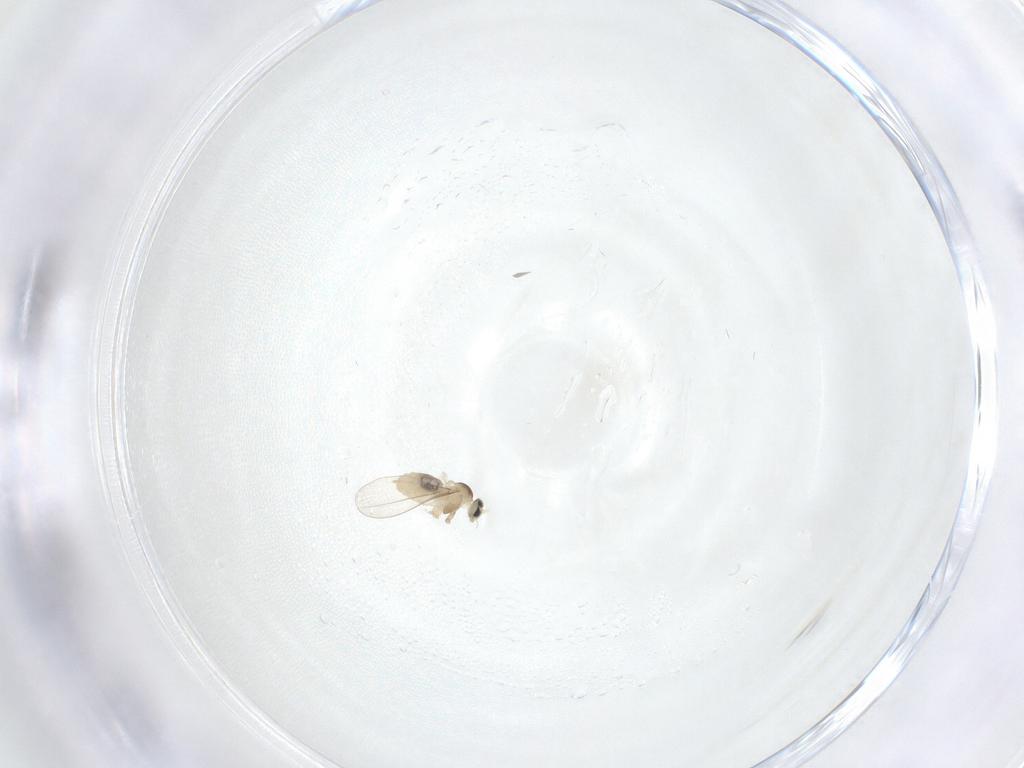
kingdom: Animalia
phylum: Arthropoda
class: Insecta
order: Diptera
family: Cecidomyiidae
